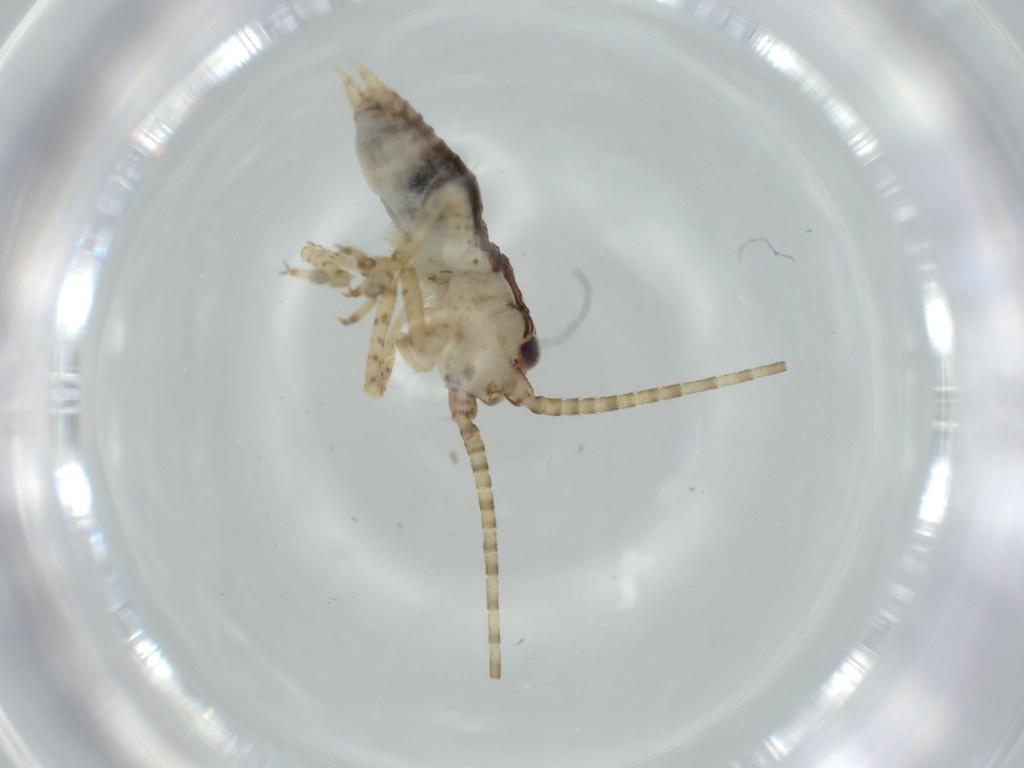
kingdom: Animalia
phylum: Arthropoda
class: Insecta
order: Orthoptera
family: Gryllidae
